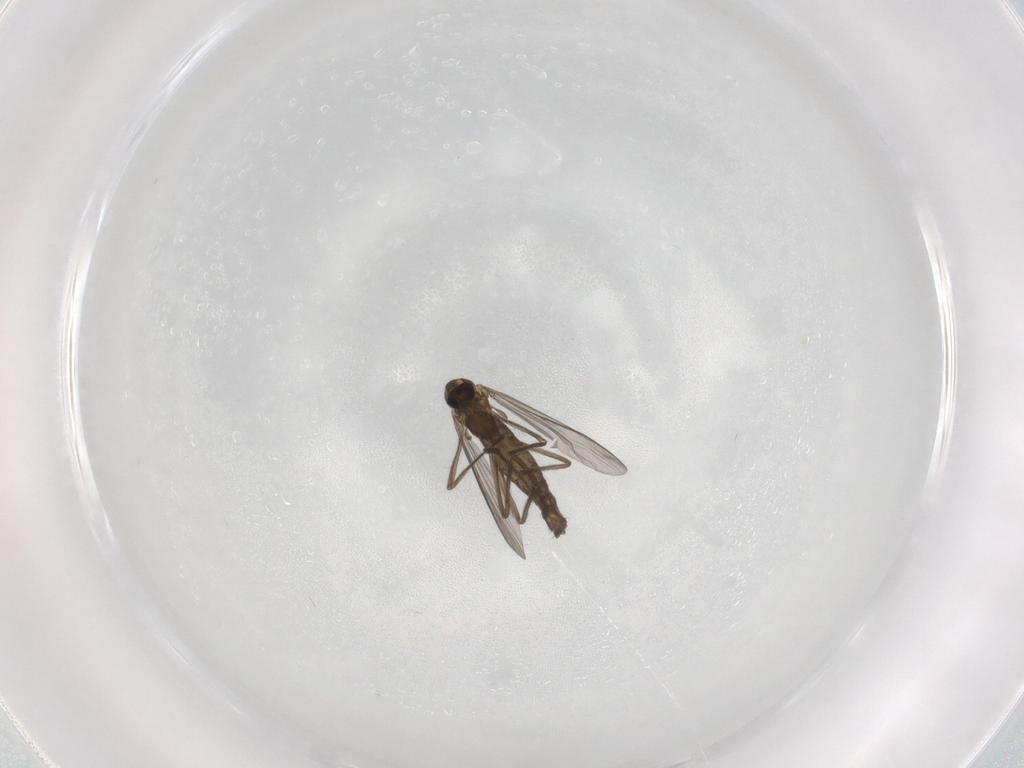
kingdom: Animalia
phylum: Arthropoda
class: Insecta
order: Diptera
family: Chironomidae
